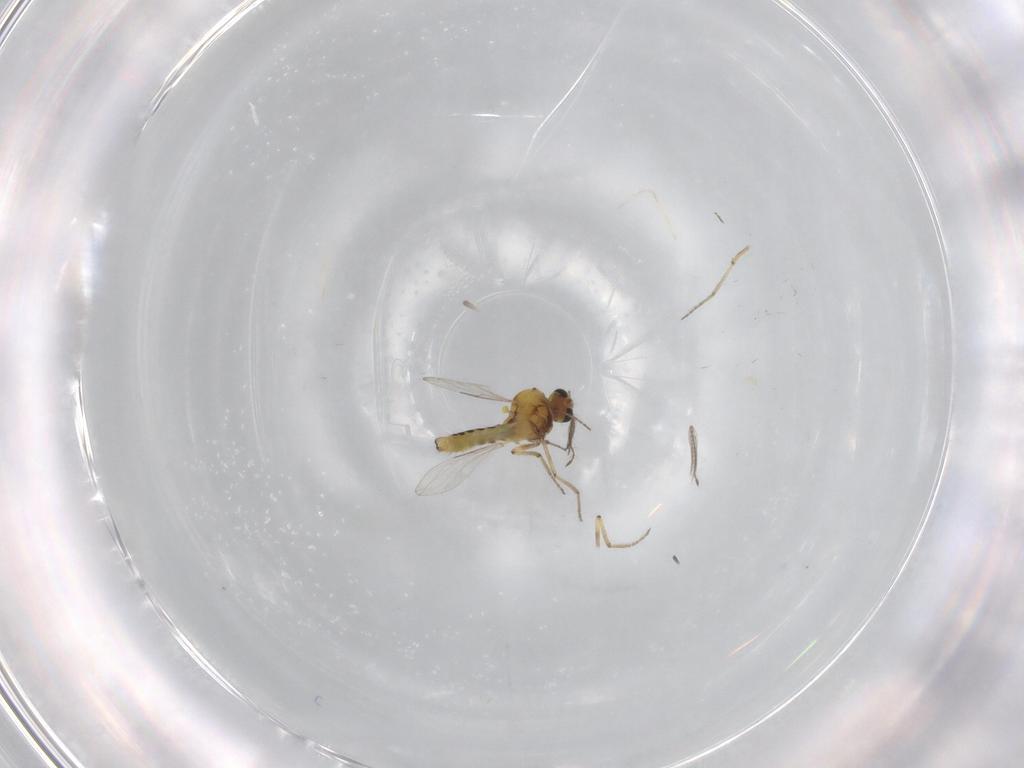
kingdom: Animalia
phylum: Arthropoda
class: Insecta
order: Diptera
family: Ceratopogonidae
